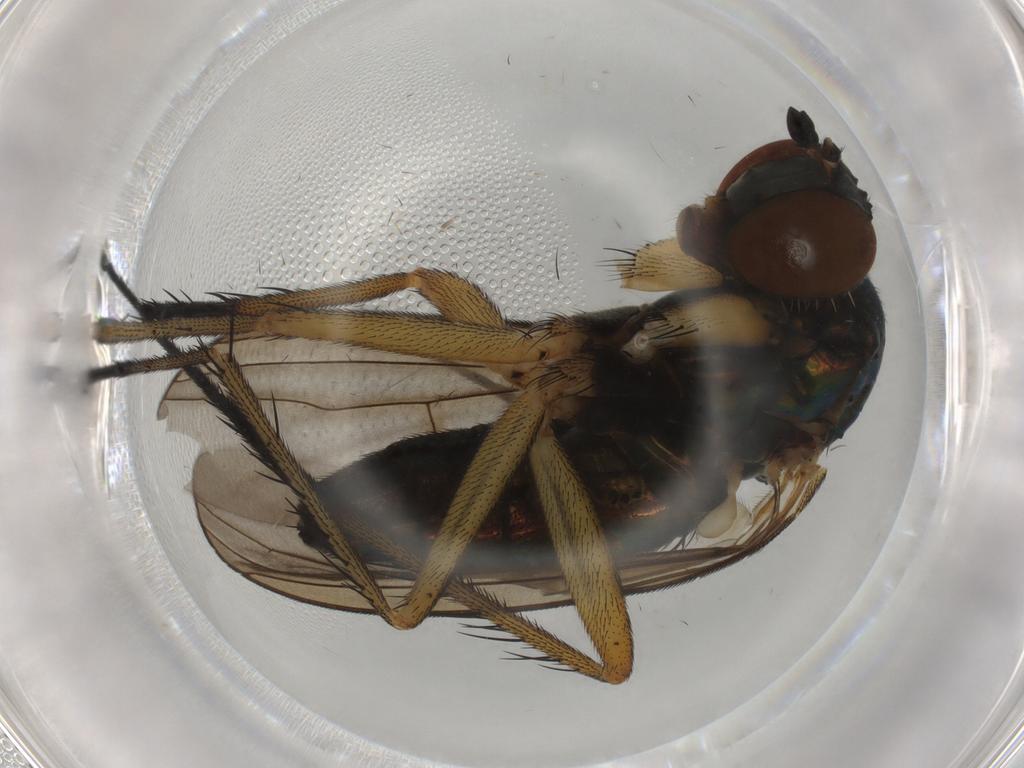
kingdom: Animalia
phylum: Arthropoda
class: Insecta
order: Diptera
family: Dolichopodidae
